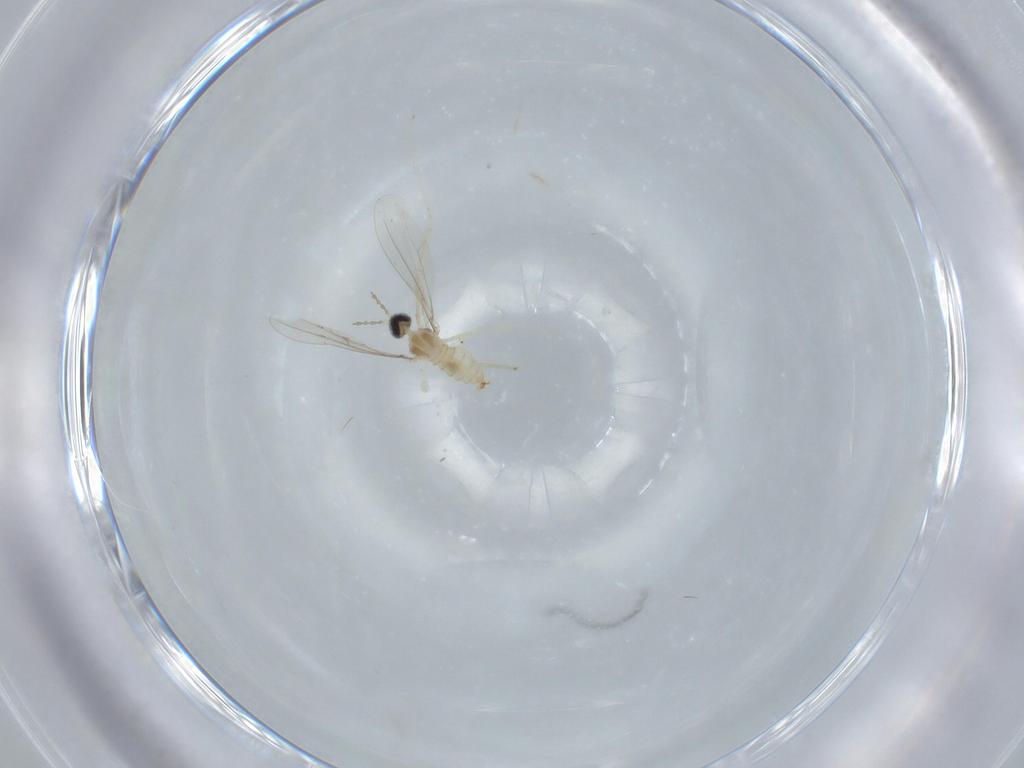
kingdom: Animalia
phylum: Arthropoda
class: Insecta
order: Diptera
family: Cecidomyiidae
